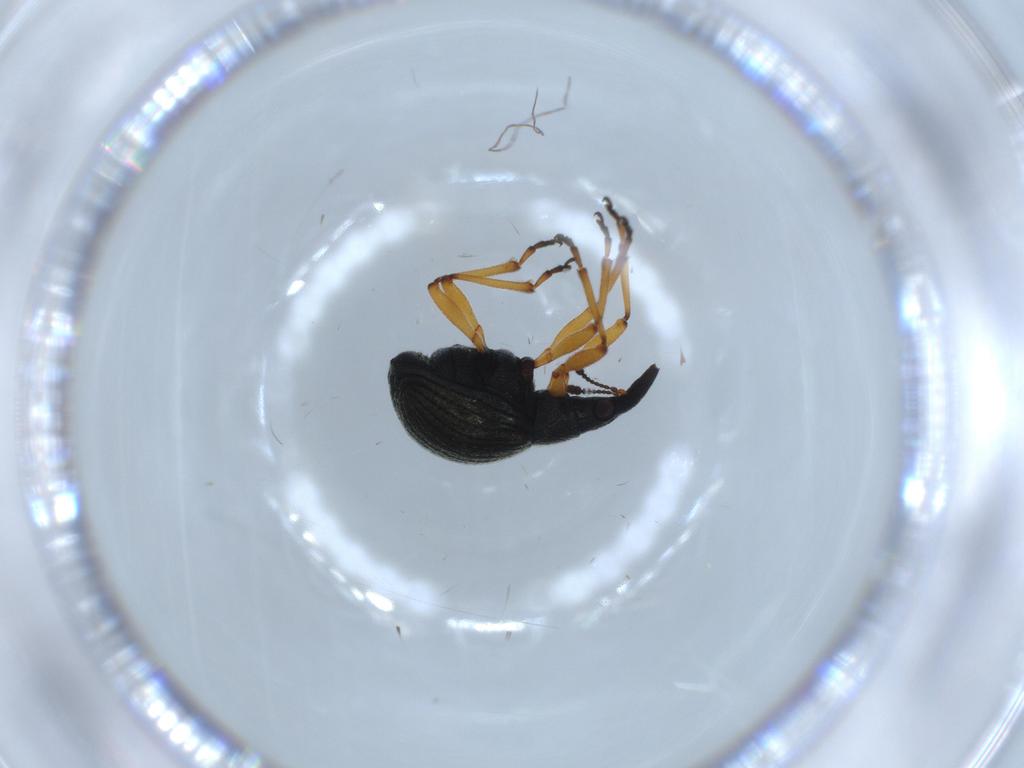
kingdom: Animalia
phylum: Arthropoda
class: Insecta
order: Coleoptera
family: Brentidae
